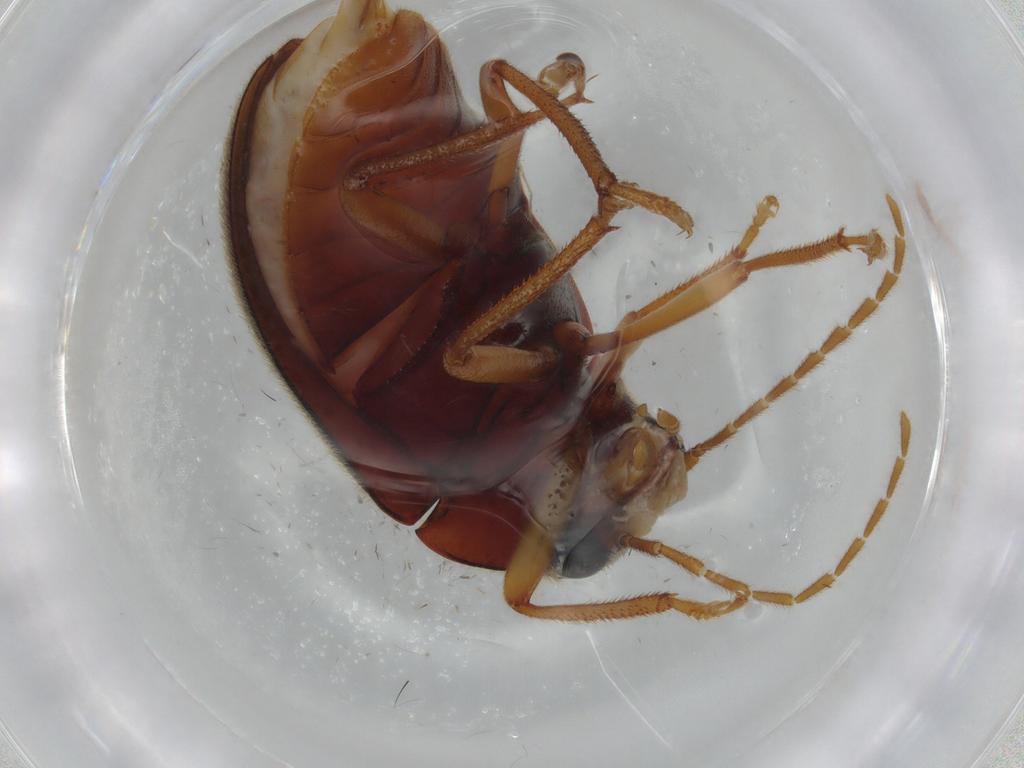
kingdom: Animalia
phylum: Arthropoda
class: Insecta
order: Coleoptera
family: Ptilodactylidae
